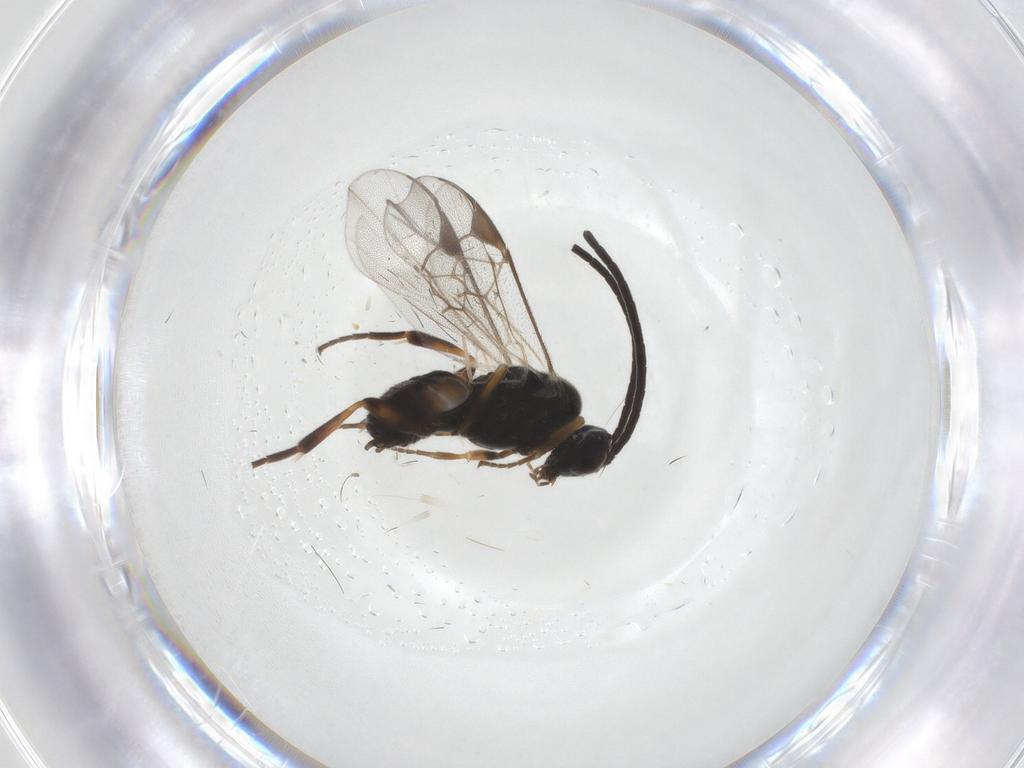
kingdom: Animalia
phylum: Arthropoda
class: Insecta
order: Hymenoptera
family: Braconidae
